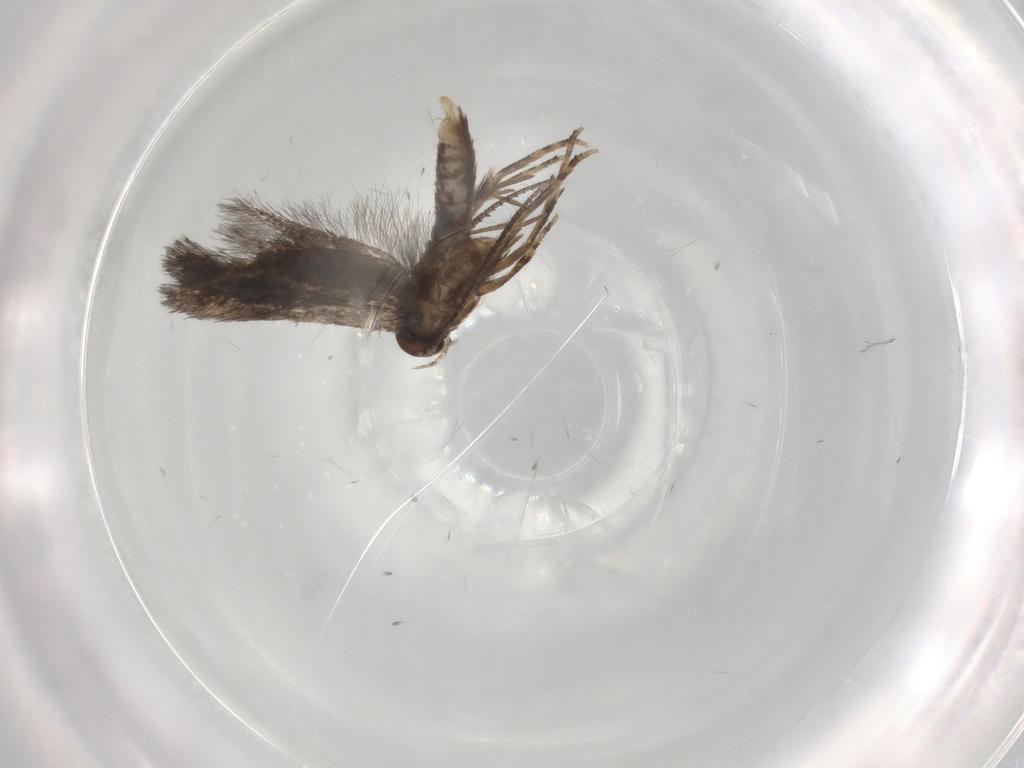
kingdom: Animalia
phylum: Arthropoda
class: Insecta
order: Lepidoptera
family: Elachistidae
